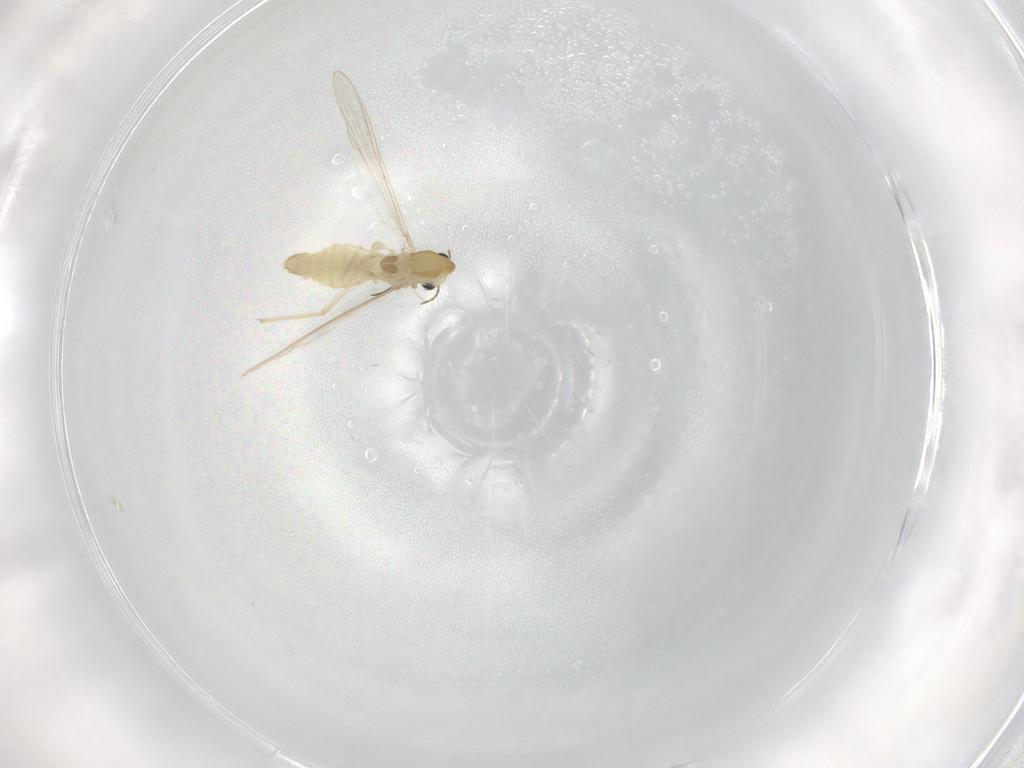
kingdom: Animalia
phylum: Arthropoda
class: Insecta
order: Diptera
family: Chironomidae
